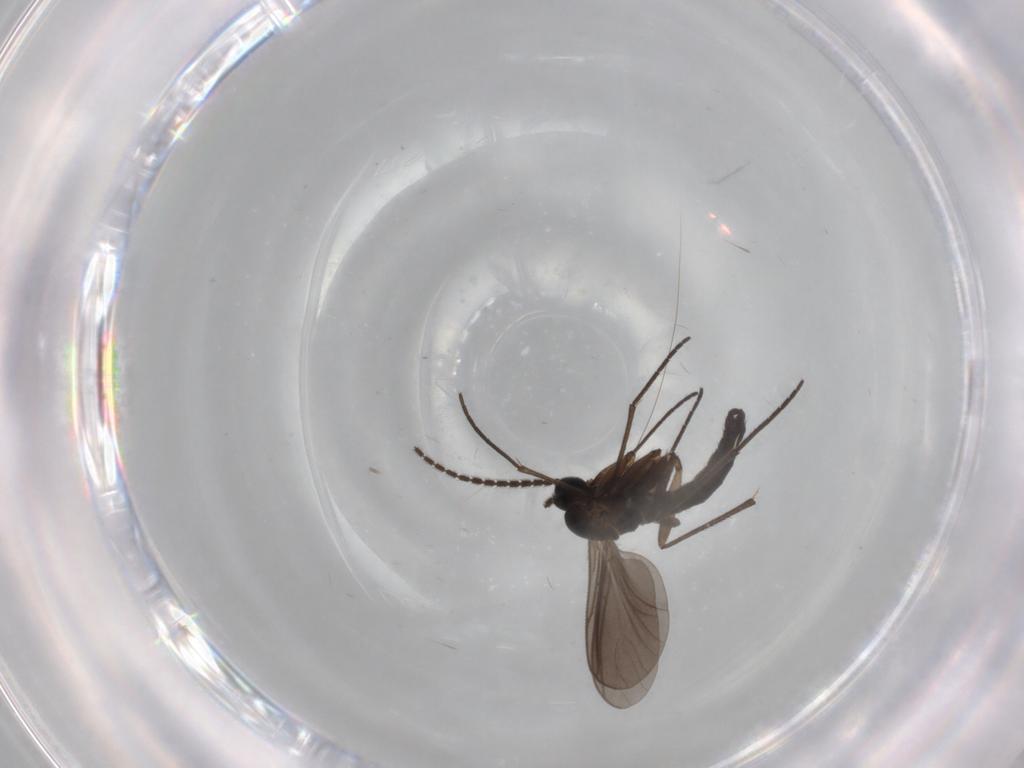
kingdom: Animalia
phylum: Arthropoda
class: Insecta
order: Diptera
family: Sciaridae
